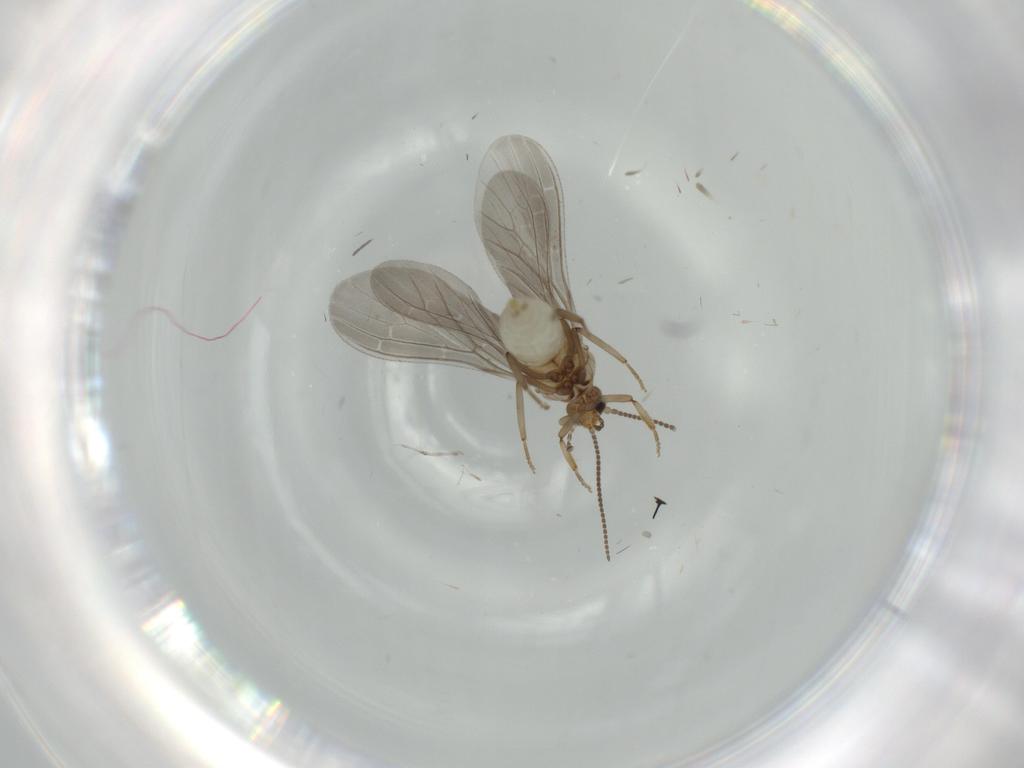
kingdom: Animalia
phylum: Arthropoda
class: Insecta
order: Neuroptera
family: Coniopterygidae
